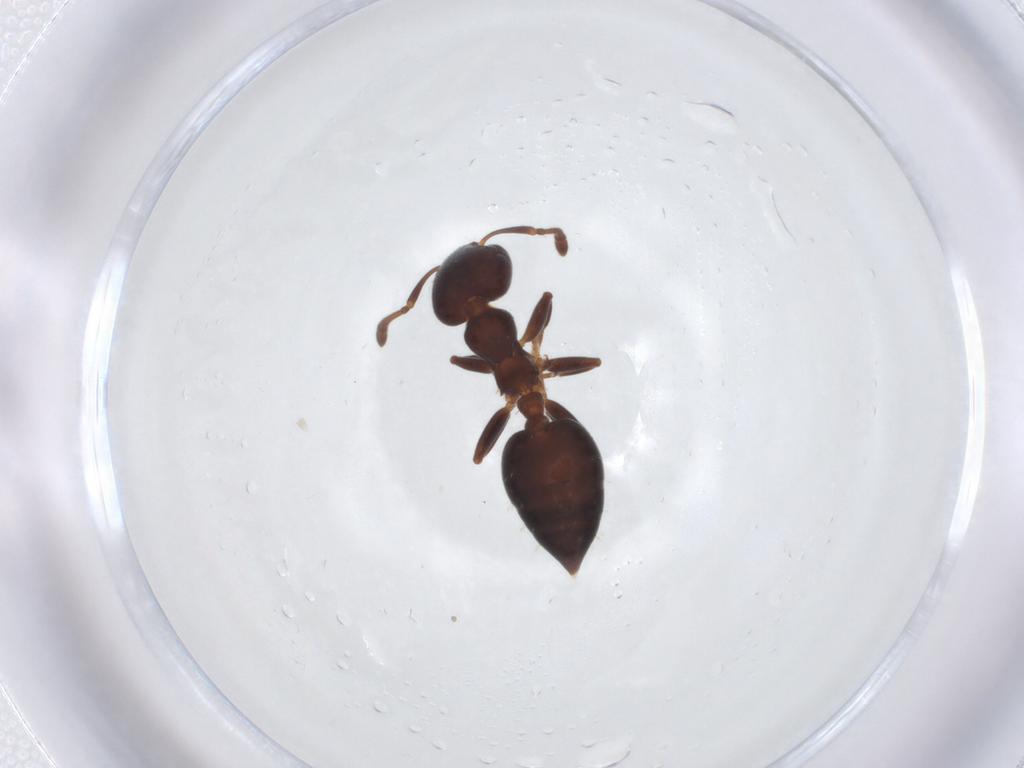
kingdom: Animalia
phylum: Arthropoda
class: Insecta
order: Hymenoptera
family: Formicidae
